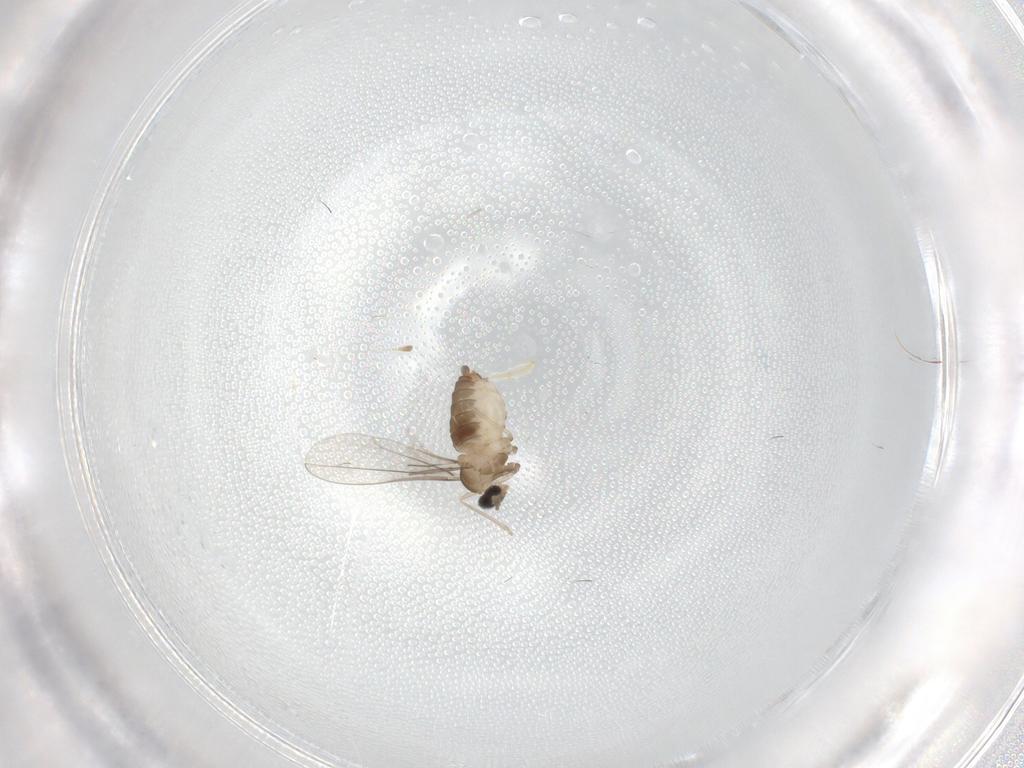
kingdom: Animalia
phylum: Arthropoda
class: Insecta
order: Diptera
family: Cecidomyiidae
